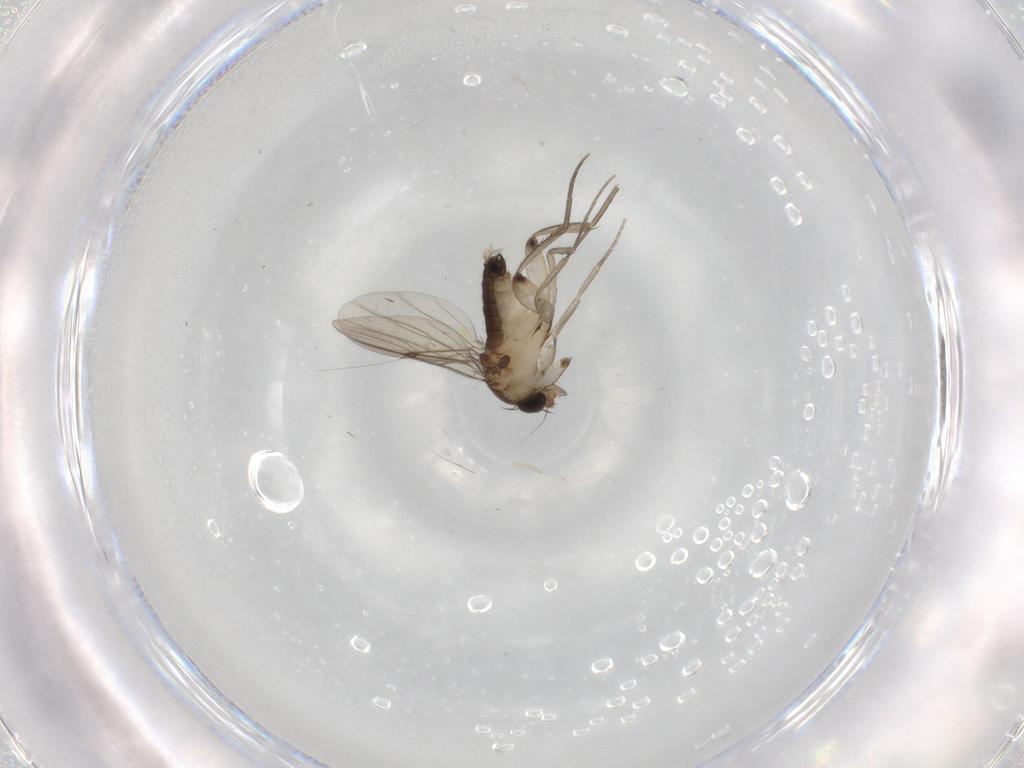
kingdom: Animalia
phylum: Arthropoda
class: Insecta
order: Diptera
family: Phoridae
